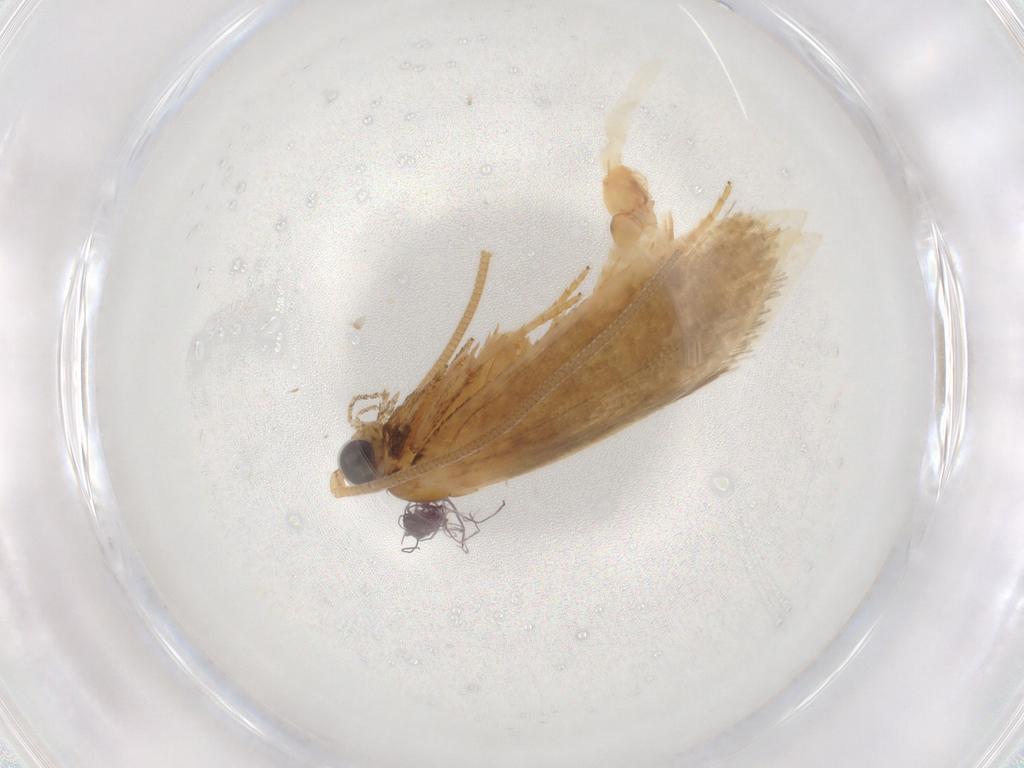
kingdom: Animalia
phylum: Arthropoda
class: Insecta
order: Lepidoptera
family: Tineidae
